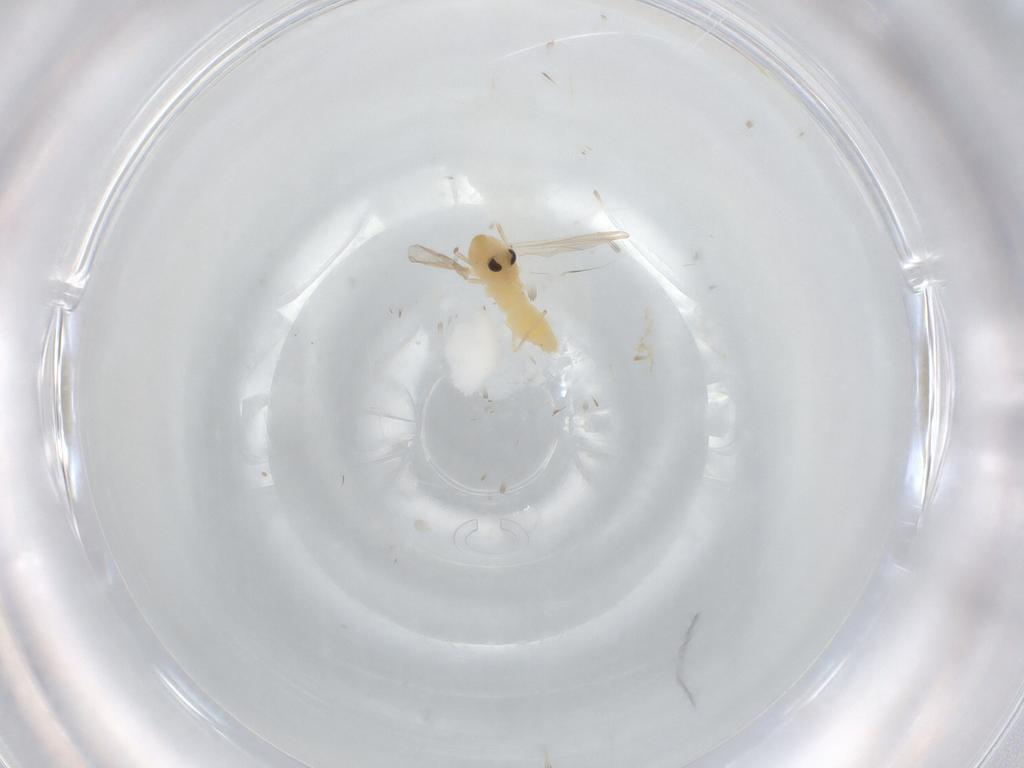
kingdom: Animalia
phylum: Arthropoda
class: Insecta
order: Diptera
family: Chironomidae
